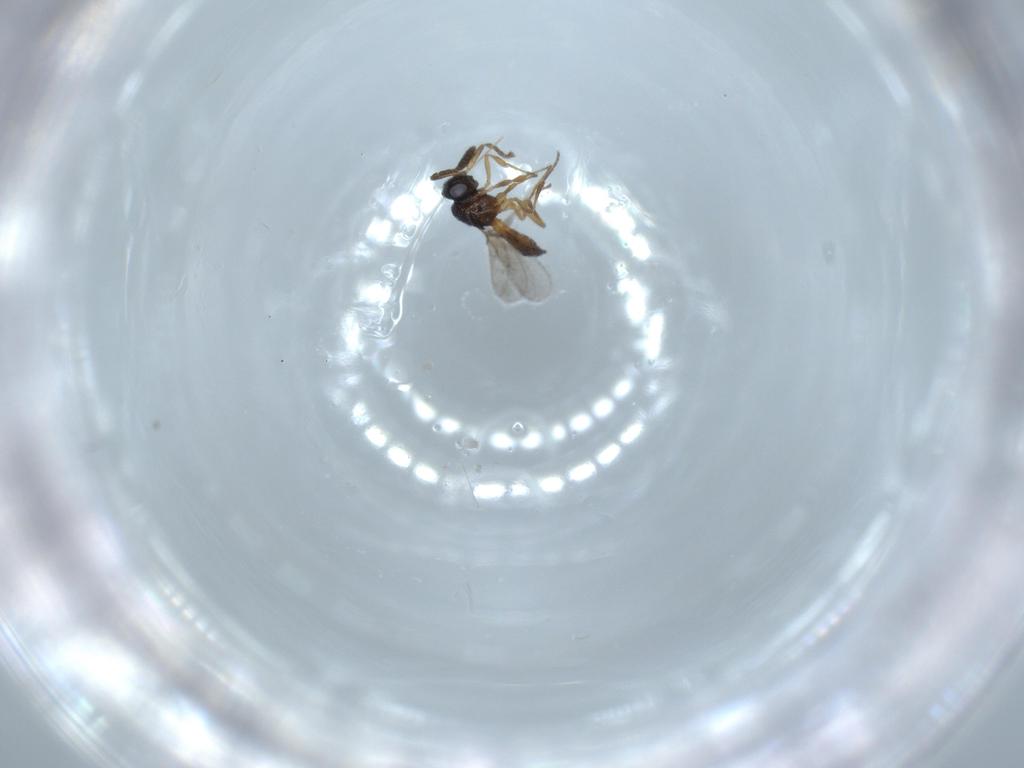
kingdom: Animalia
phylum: Arthropoda
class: Insecta
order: Hymenoptera
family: Scelionidae
